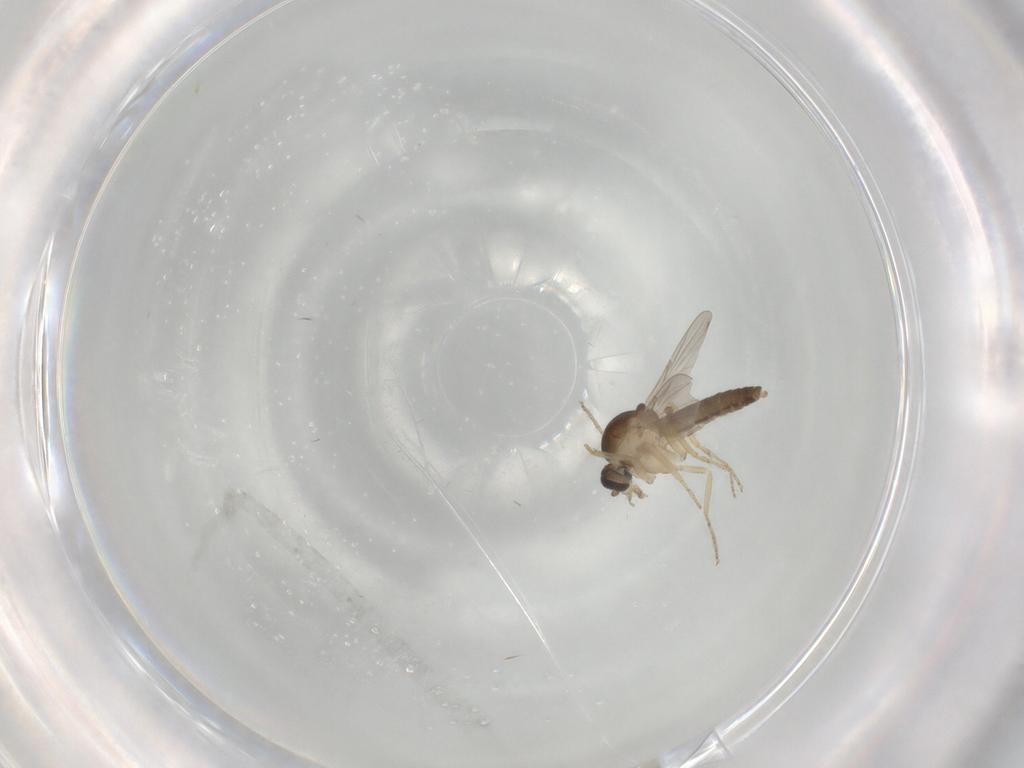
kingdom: Animalia
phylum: Arthropoda
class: Insecta
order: Diptera
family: Ceratopogonidae
